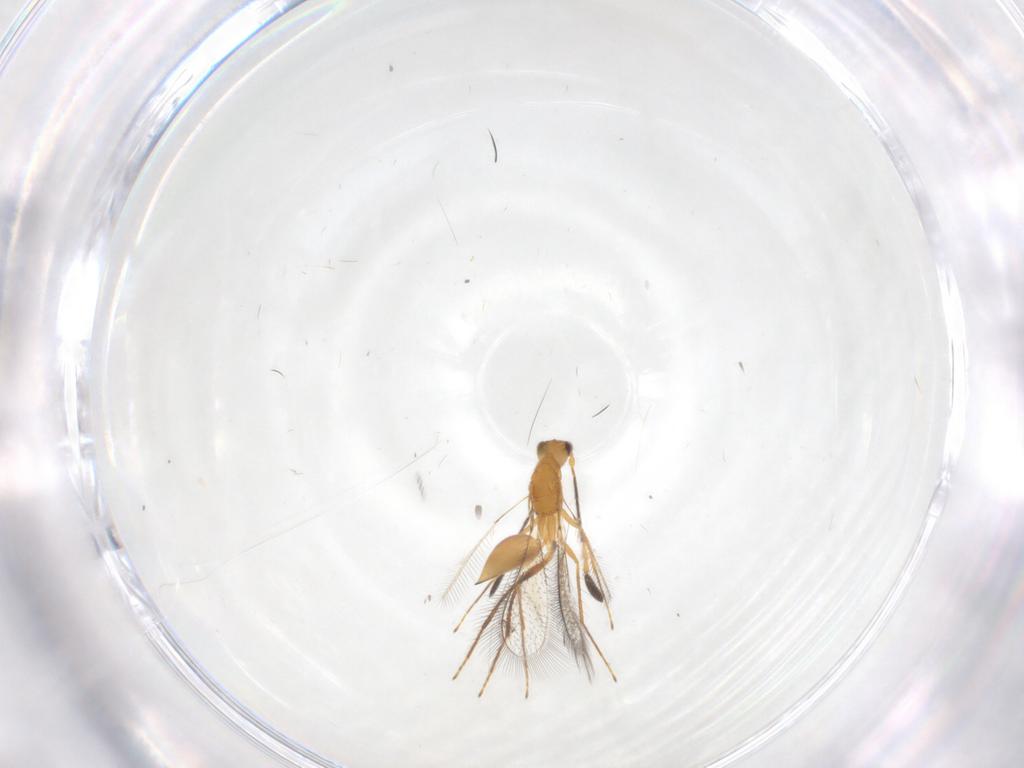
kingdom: Animalia
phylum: Arthropoda
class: Insecta
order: Hymenoptera
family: Mymaridae
